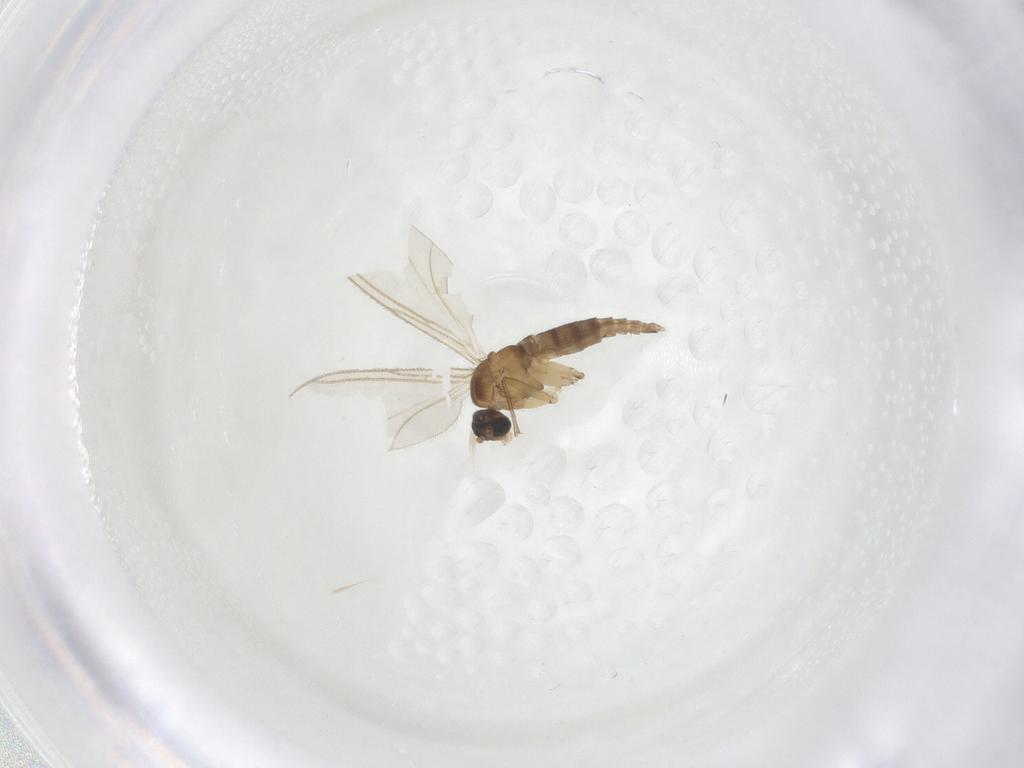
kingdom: Animalia
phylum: Arthropoda
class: Insecta
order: Diptera
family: Sciaridae
